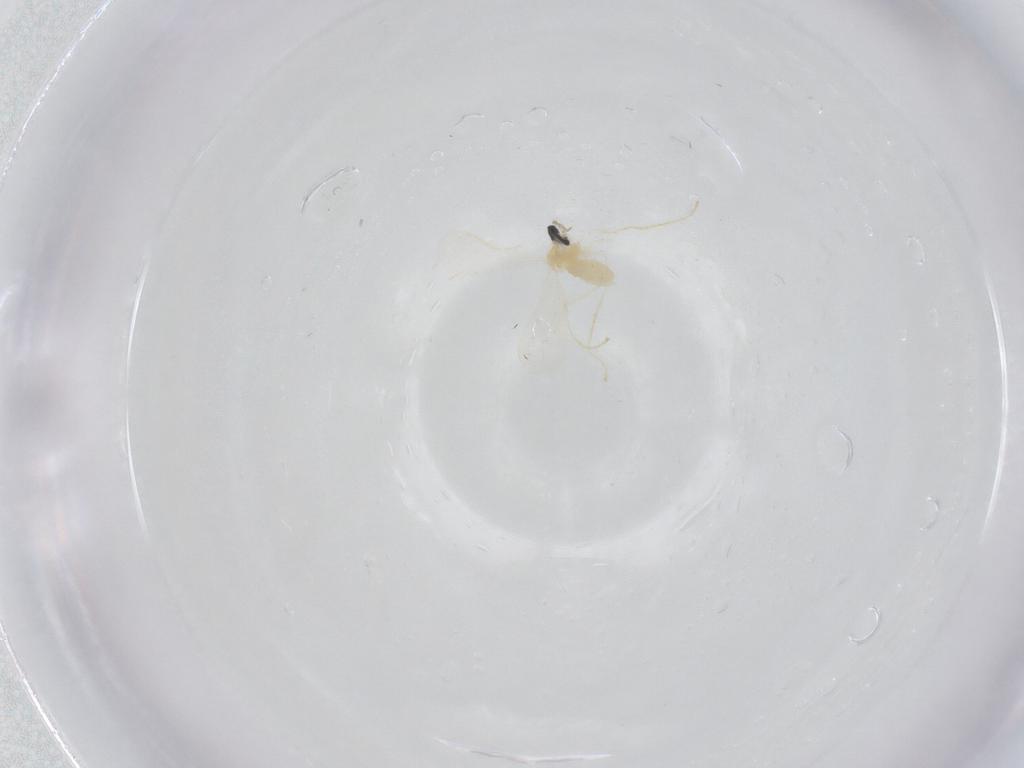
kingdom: Animalia
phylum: Arthropoda
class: Insecta
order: Diptera
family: Cecidomyiidae
